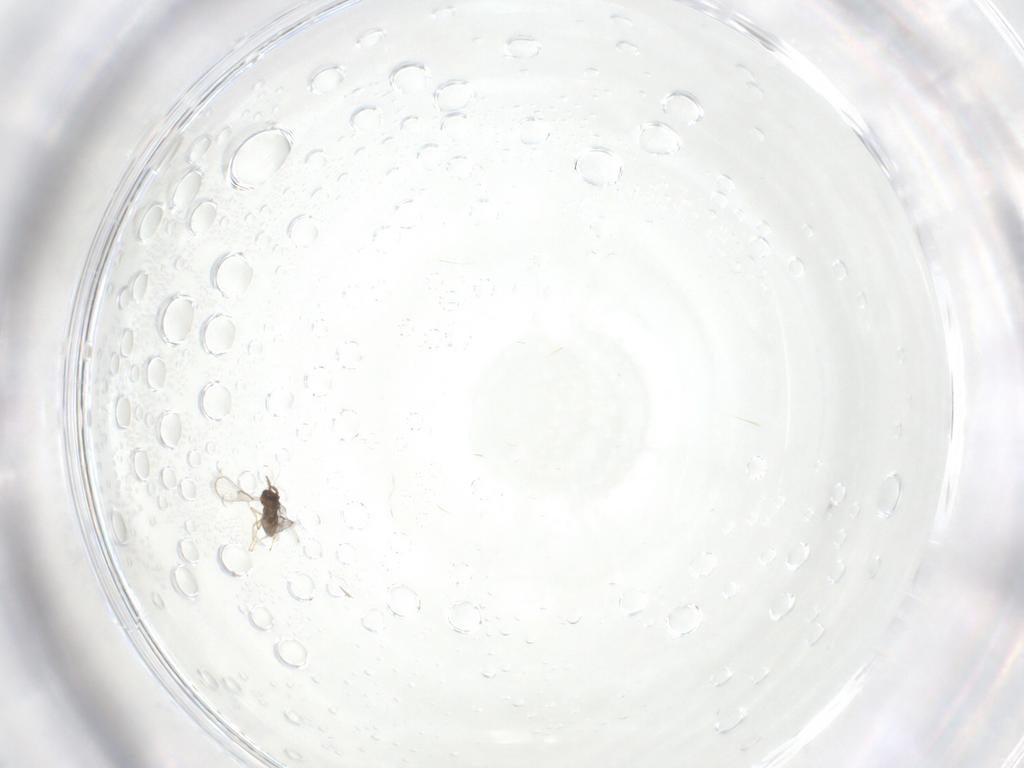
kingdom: Animalia
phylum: Arthropoda
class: Insecta
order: Hymenoptera
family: Trichogrammatidae
